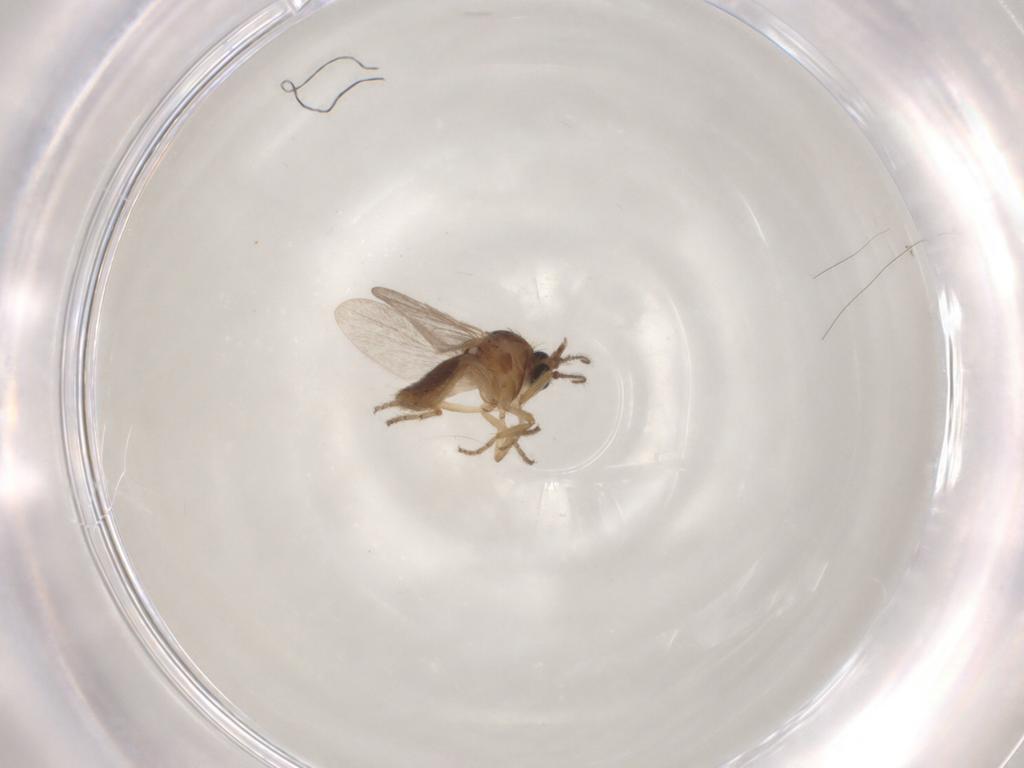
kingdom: Animalia
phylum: Arthropoda
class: Insecta
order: Diptera
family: Ceratopogonidae
